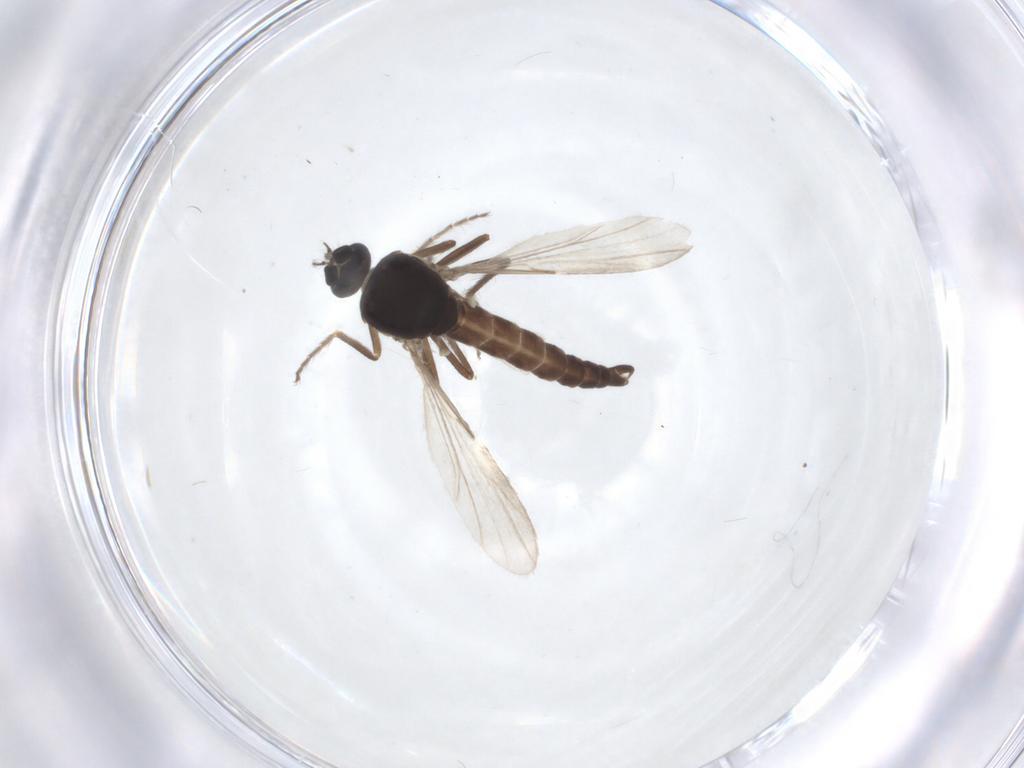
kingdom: Animalia
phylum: Arthropoda
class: Insecta
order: Diptera
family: Ceratopogonidae
